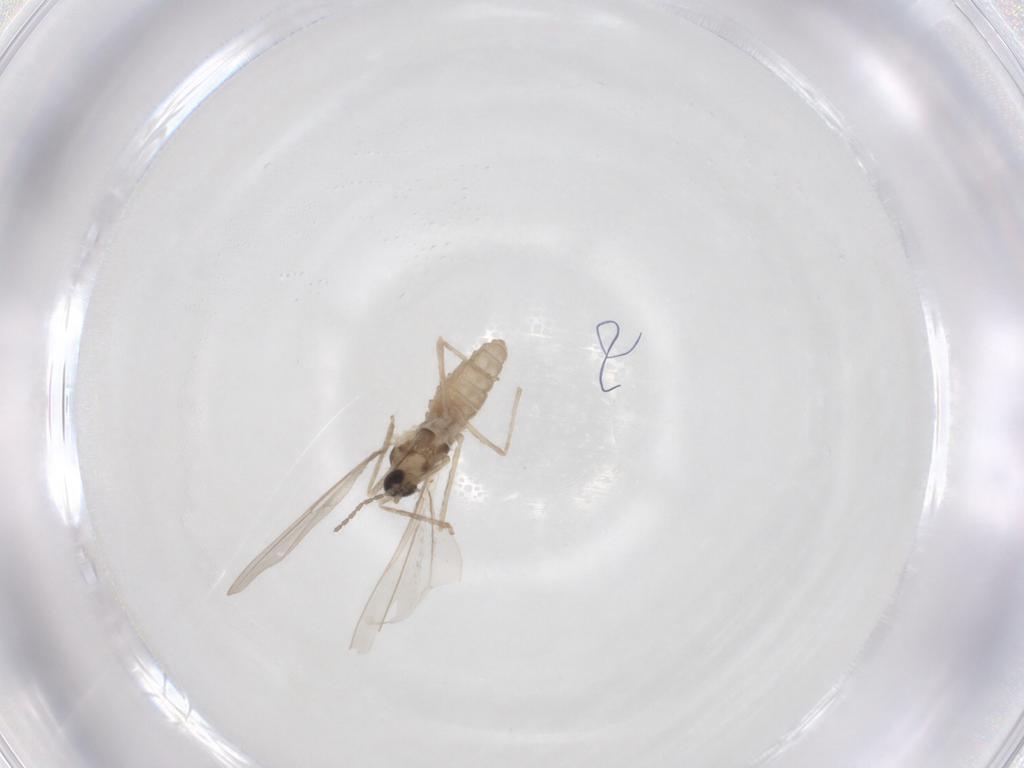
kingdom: Animalia
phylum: Arthropoda
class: Insecta
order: Diptera
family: Cecidomyiidae
